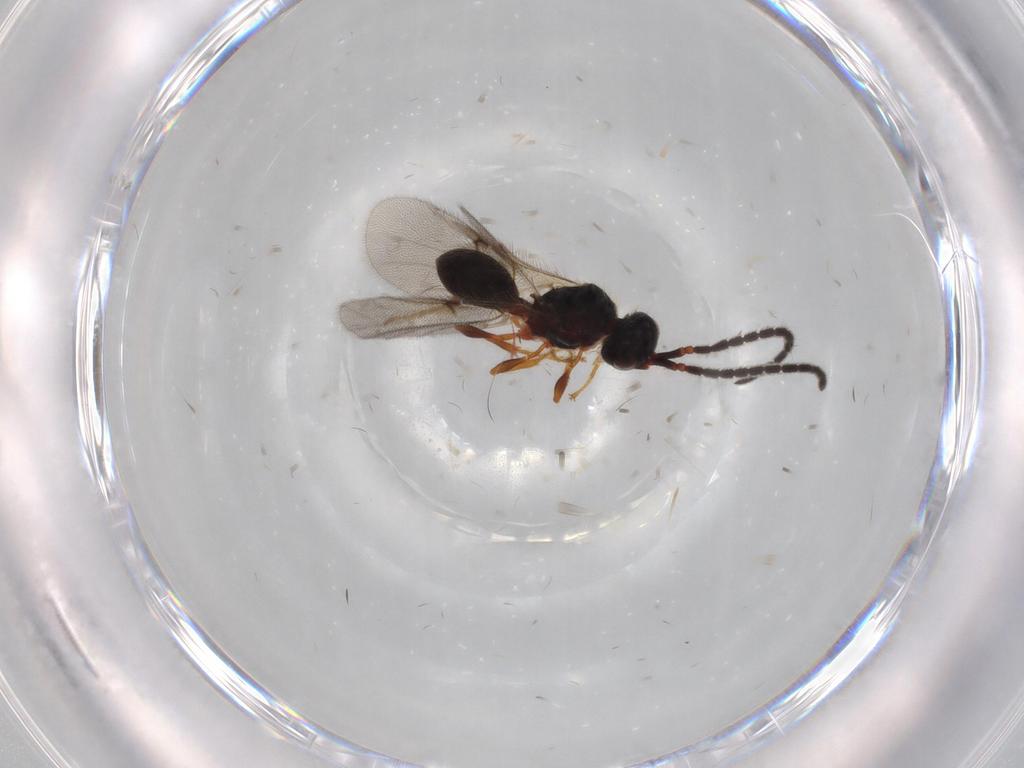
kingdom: Animalia
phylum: Arthropoda
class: Insecta
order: Hymenoptera
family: Diapriidae
